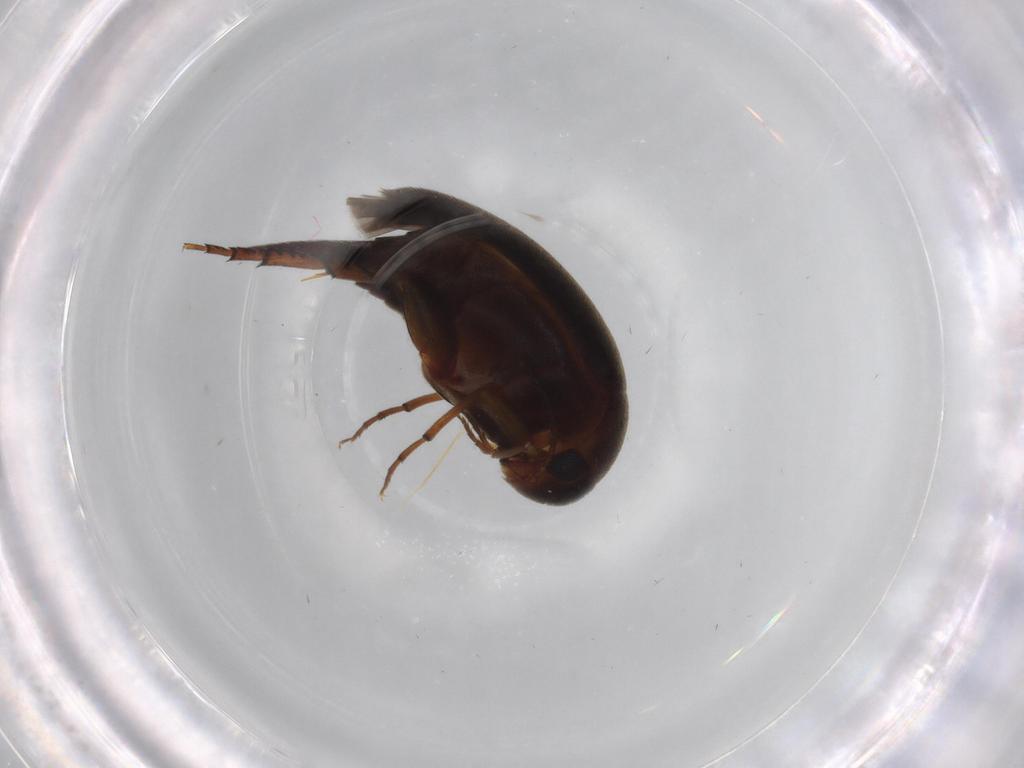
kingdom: Animalia
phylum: Arthropoda
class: Insecta
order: Coleoptera
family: Mordellidae
